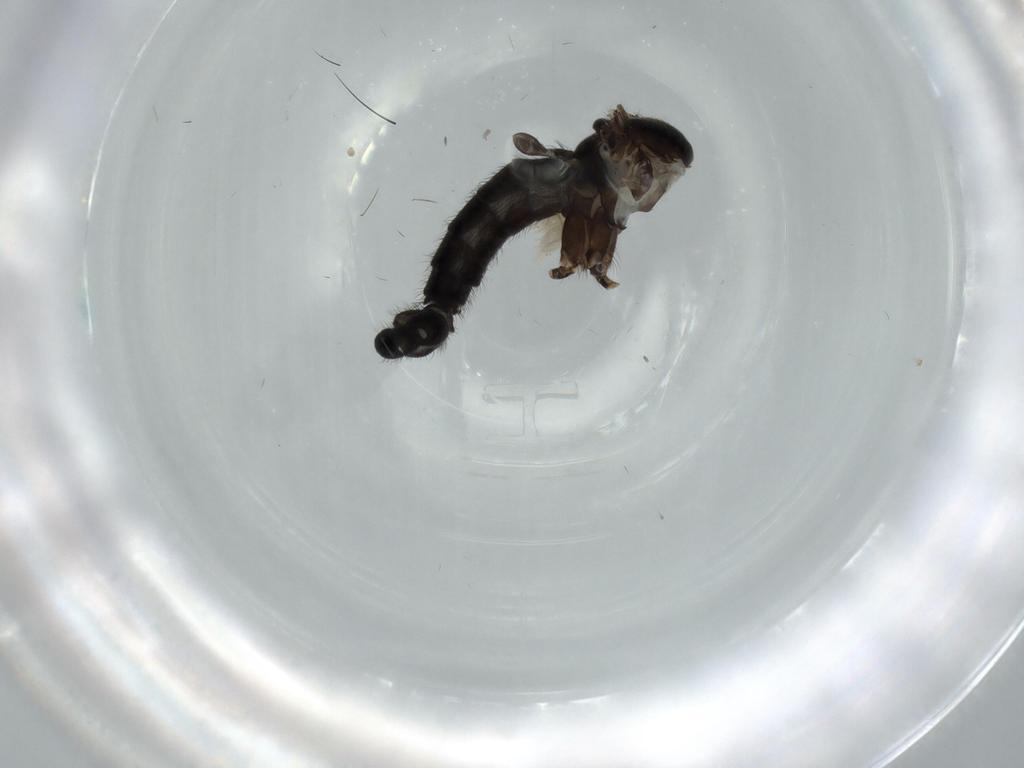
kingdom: Animalia
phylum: Arthropoda
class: Insecta
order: Diptera
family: Sciaridae
